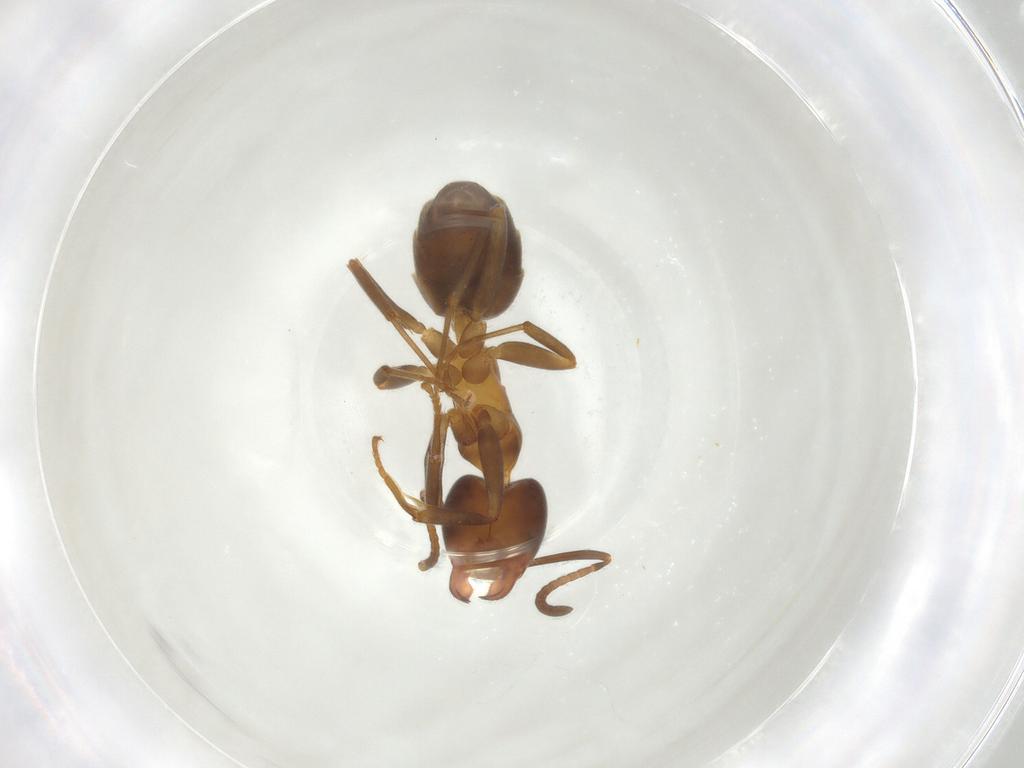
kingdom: Animalia
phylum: Arthropoda
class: Insecta
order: Hymenoptera
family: Formicidae
